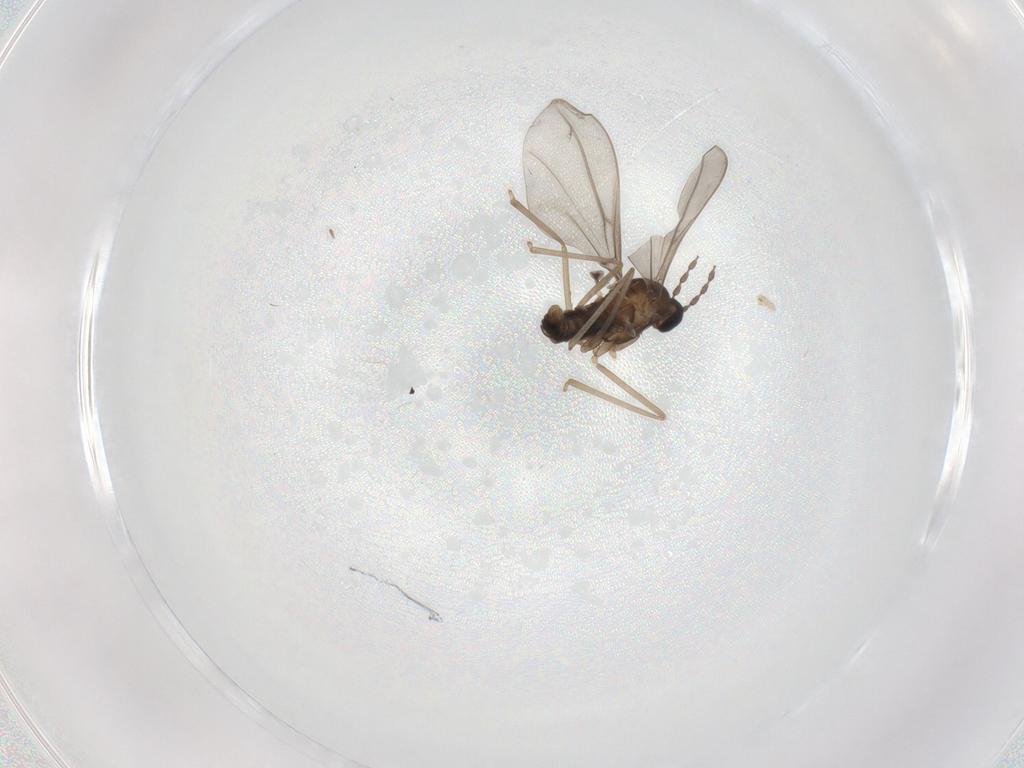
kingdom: Animalia
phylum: Arthropoda
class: Insecta
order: Diptera
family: Cecidomyiidae
